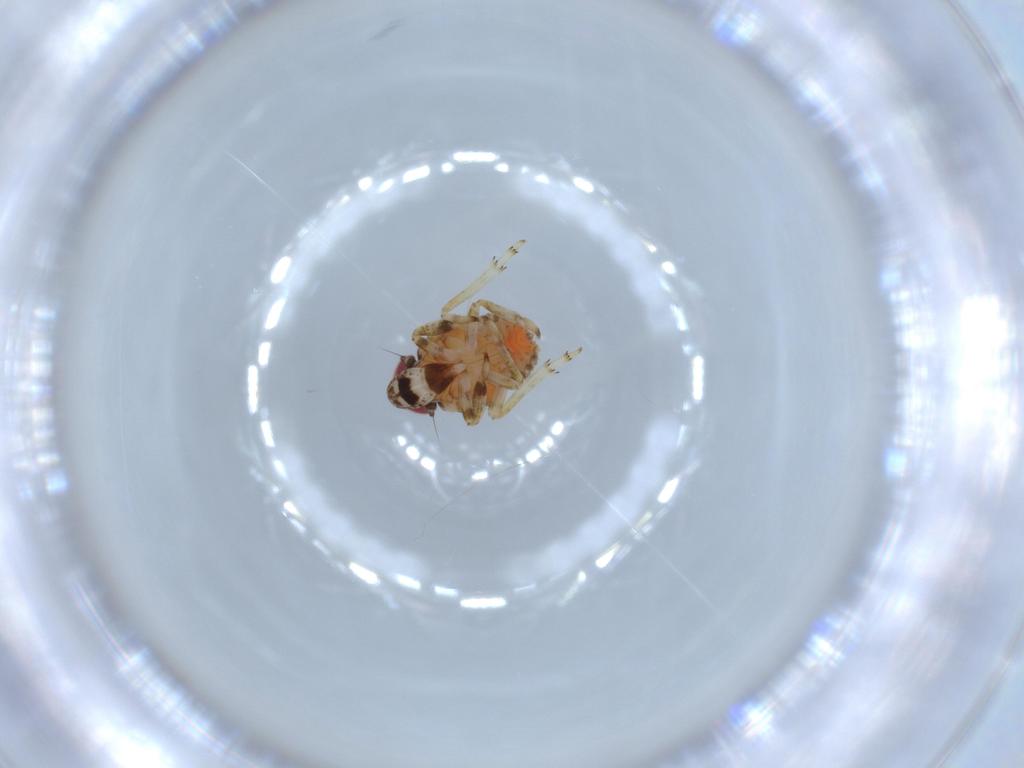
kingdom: Animalia
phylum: Arthropoda
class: Insecta
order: Hemiptera
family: Issidae
